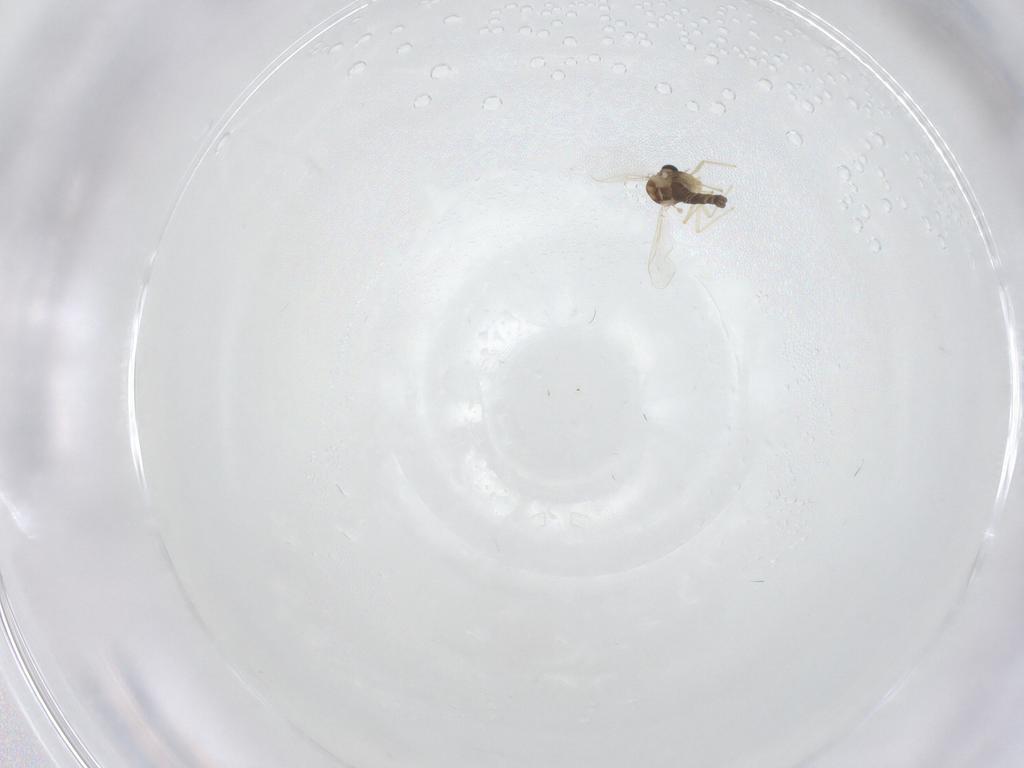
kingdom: Animalia
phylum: Arthropoda
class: Insecta
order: Diptera
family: Chironomidae
